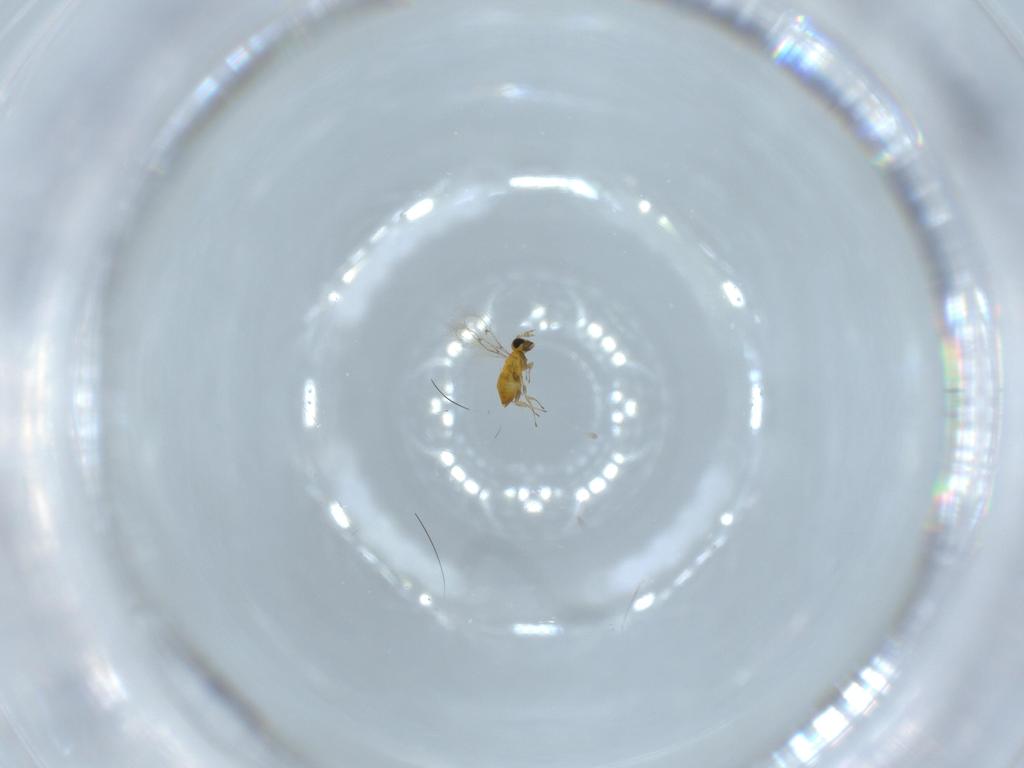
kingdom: Animalia
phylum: Arthropoda
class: Insecta
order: Hymenoptera
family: Trichogrammatidae
